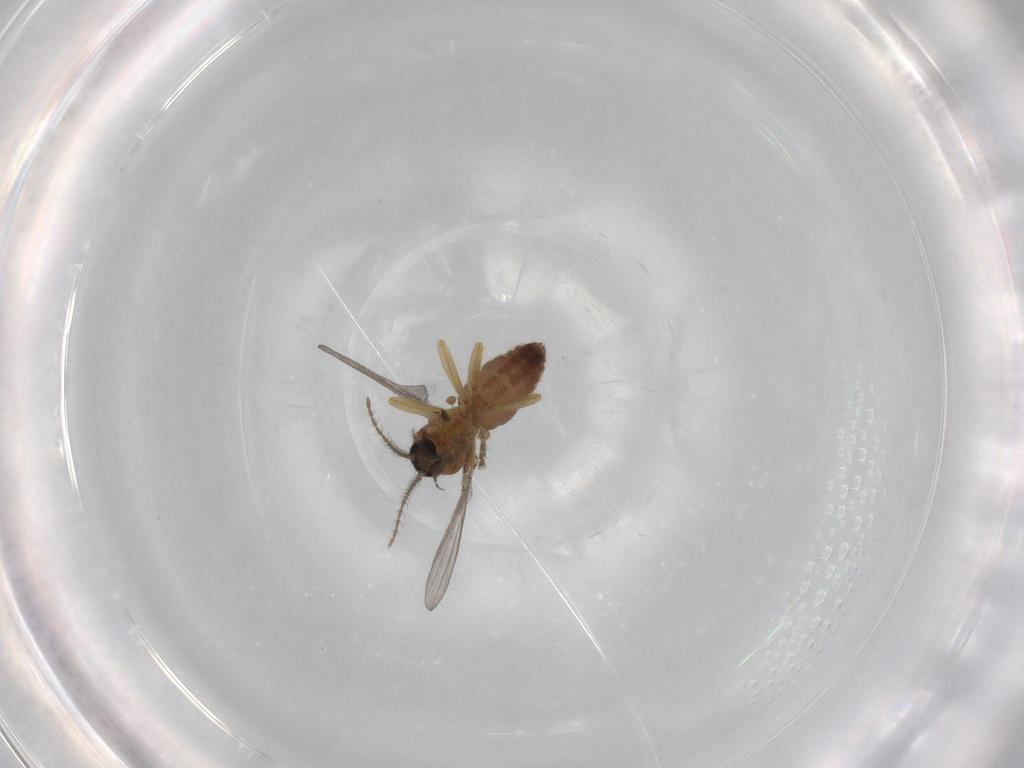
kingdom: Animalia
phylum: Arthropoda
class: Insecta
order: Diptera
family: Ceratopogonidae
